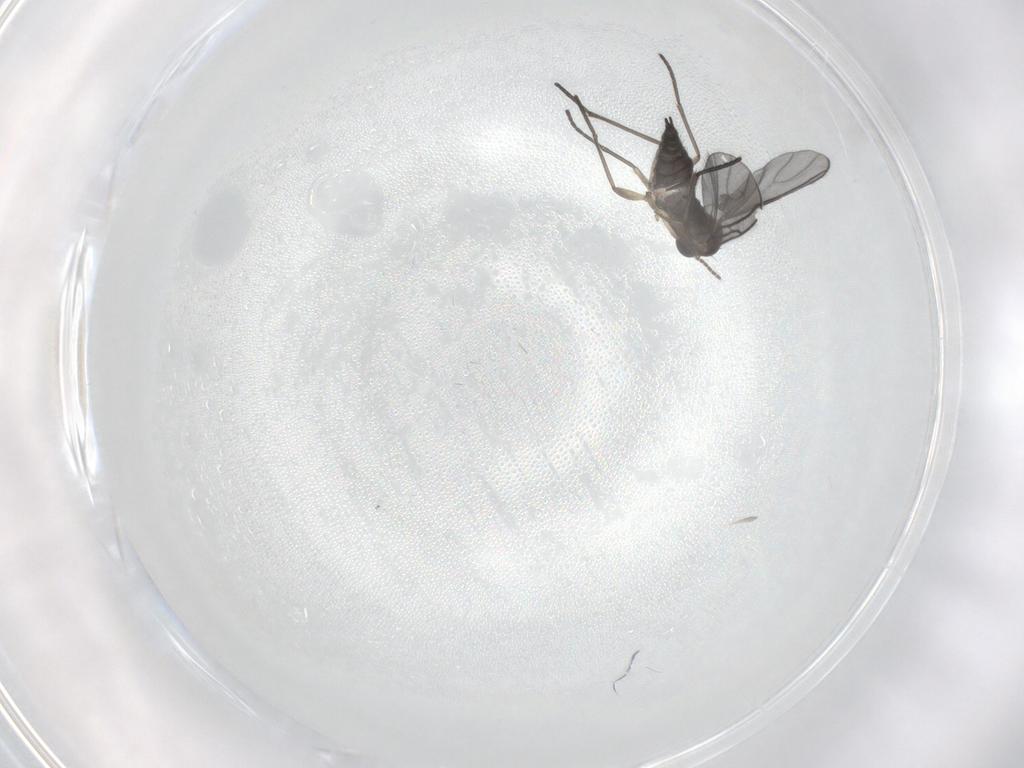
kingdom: Animalia
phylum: Arthropoda
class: Insecta
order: Diptera
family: Sciaridae
